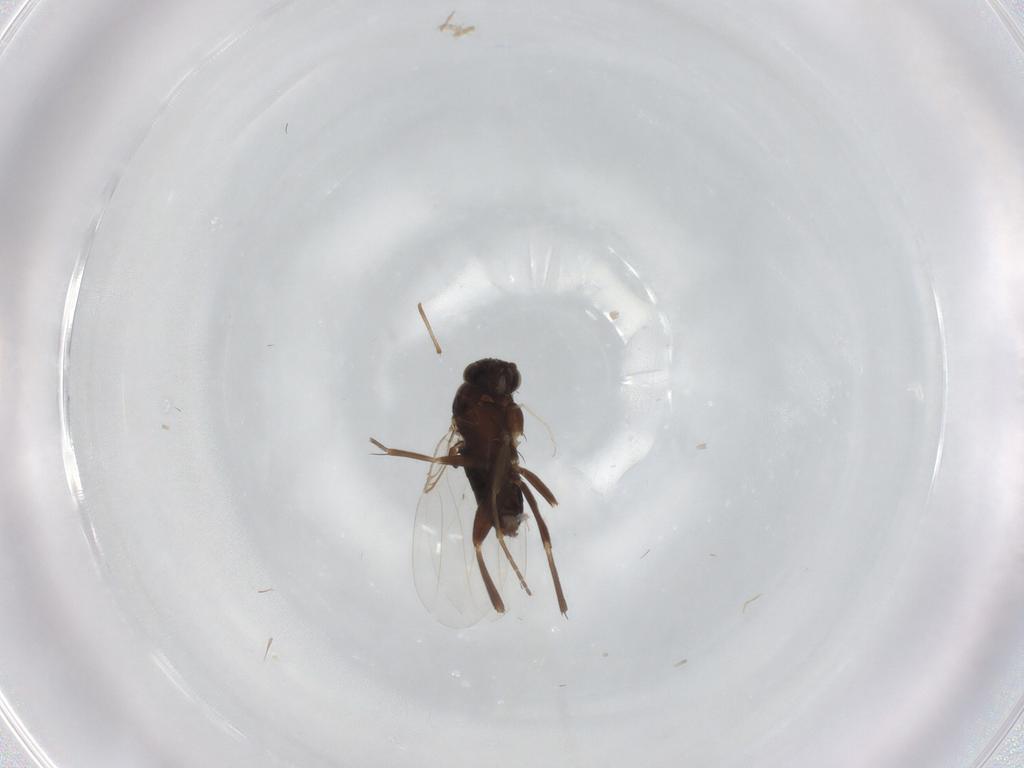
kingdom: Animalia
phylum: Arthropoda
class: Insecta
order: Diptera
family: Phoridae
